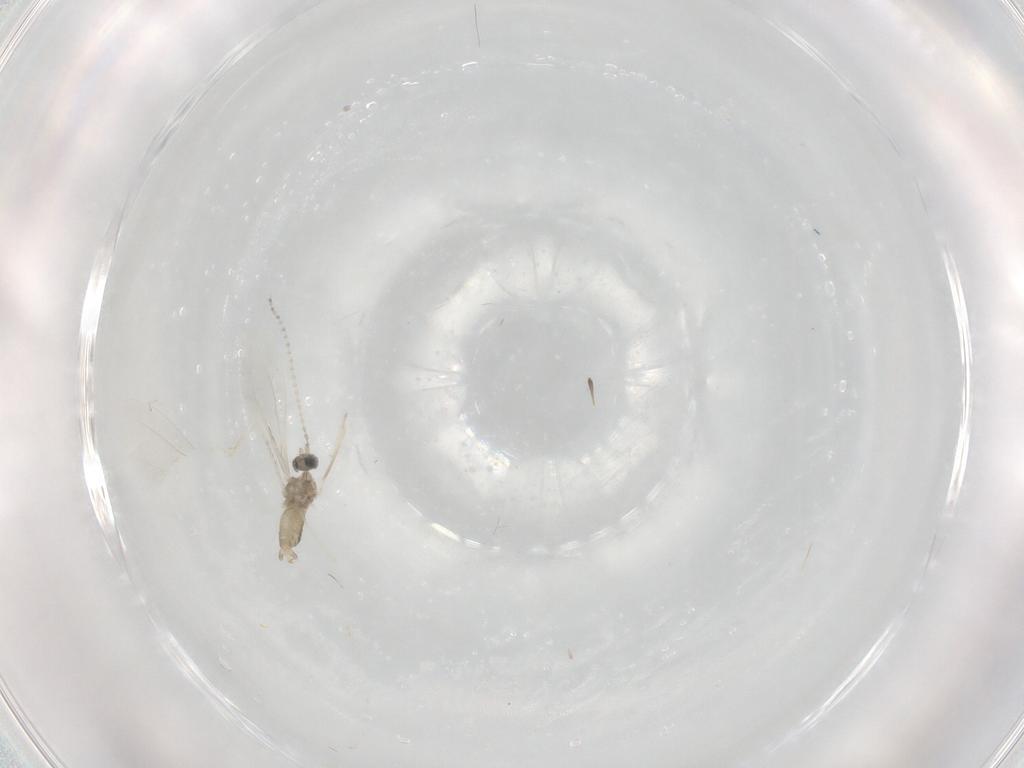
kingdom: Animalia
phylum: Arthropoda
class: Insecta
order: Diptera
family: Cecidomyiidae
